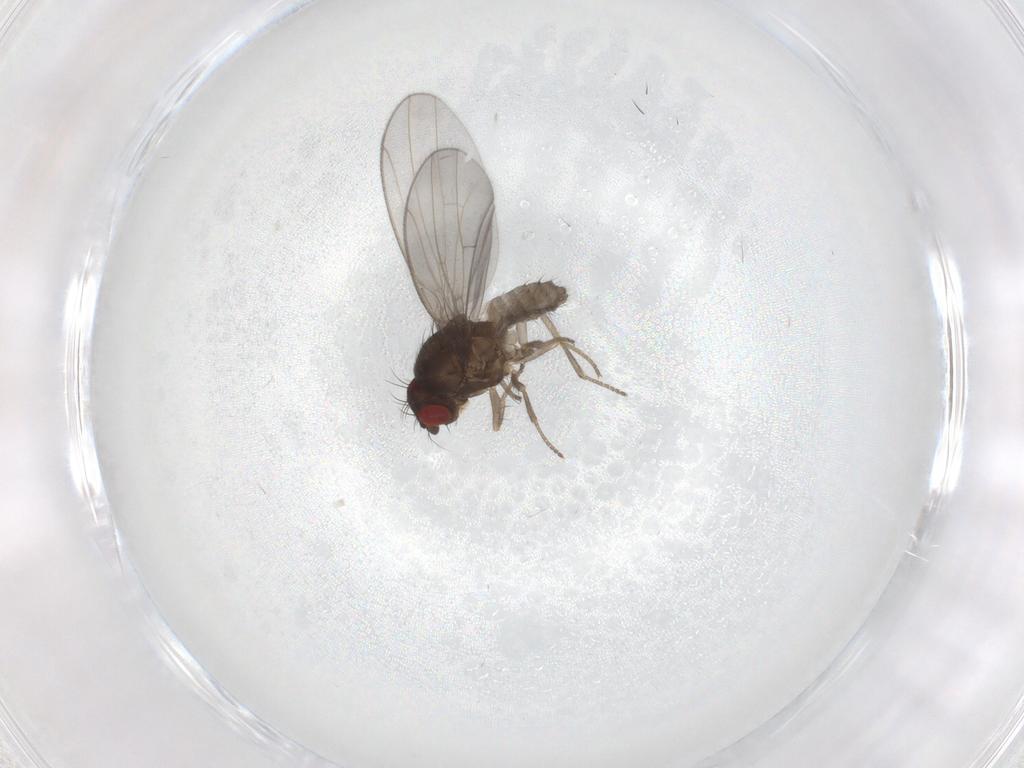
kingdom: Animalia
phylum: Arthropoda
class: Insecta
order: Diptera
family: Drosophilidae
